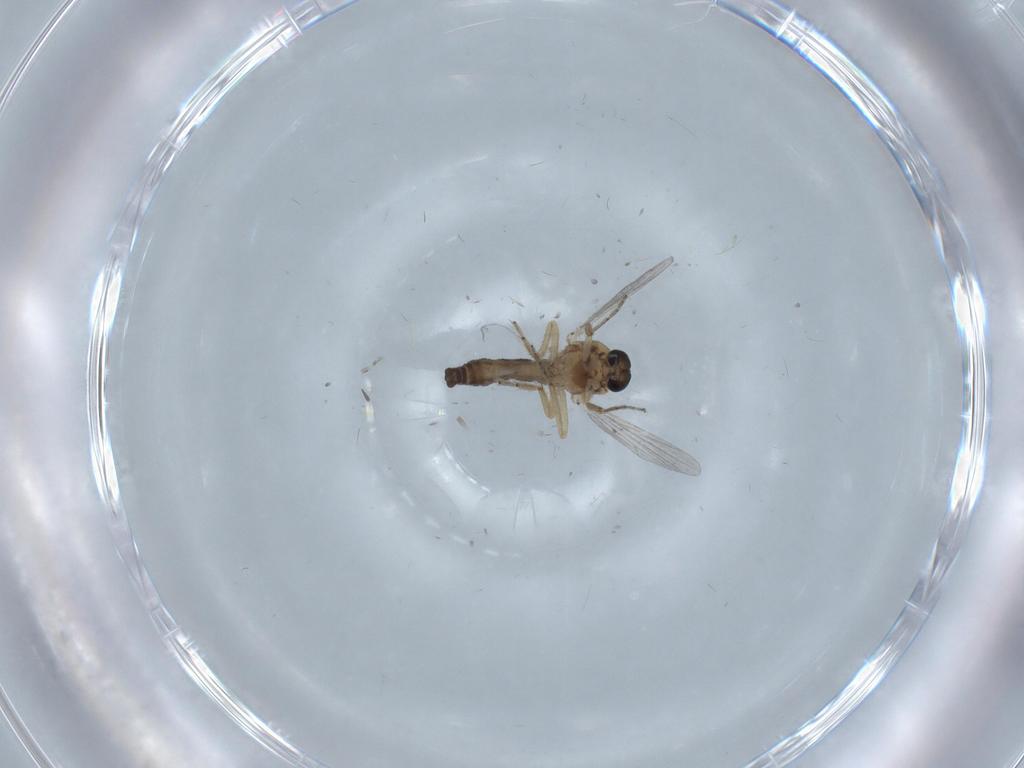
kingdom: Animalia
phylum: Arthropoda
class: Insecta
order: Diptera
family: Ceratopogonidae
